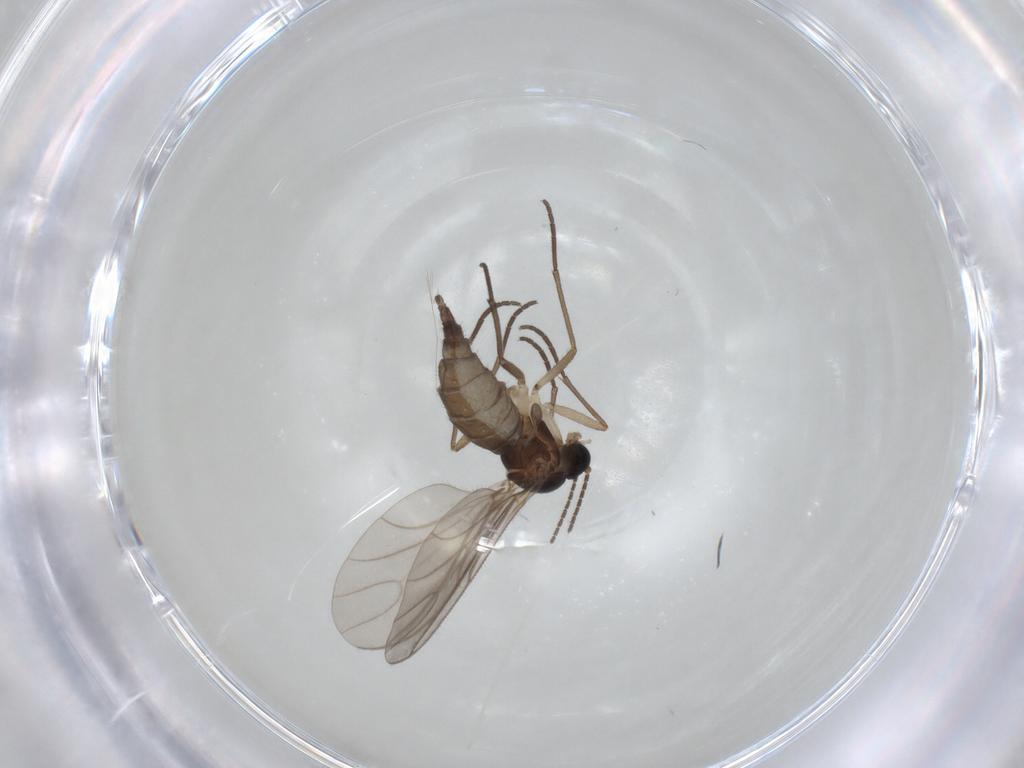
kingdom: Animalia
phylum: Arthropoda
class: Insecta
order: Diptera
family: Sciaridae
